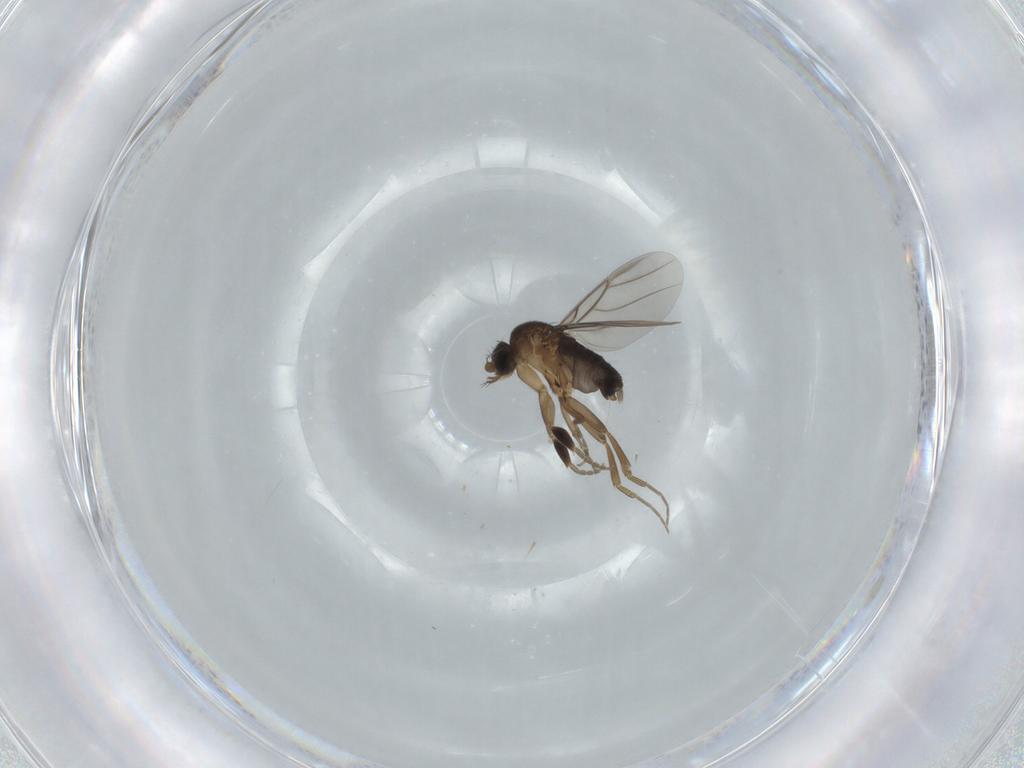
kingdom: Animalia
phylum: Arthropoda
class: Insecta
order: Diptera
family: Phoridae
